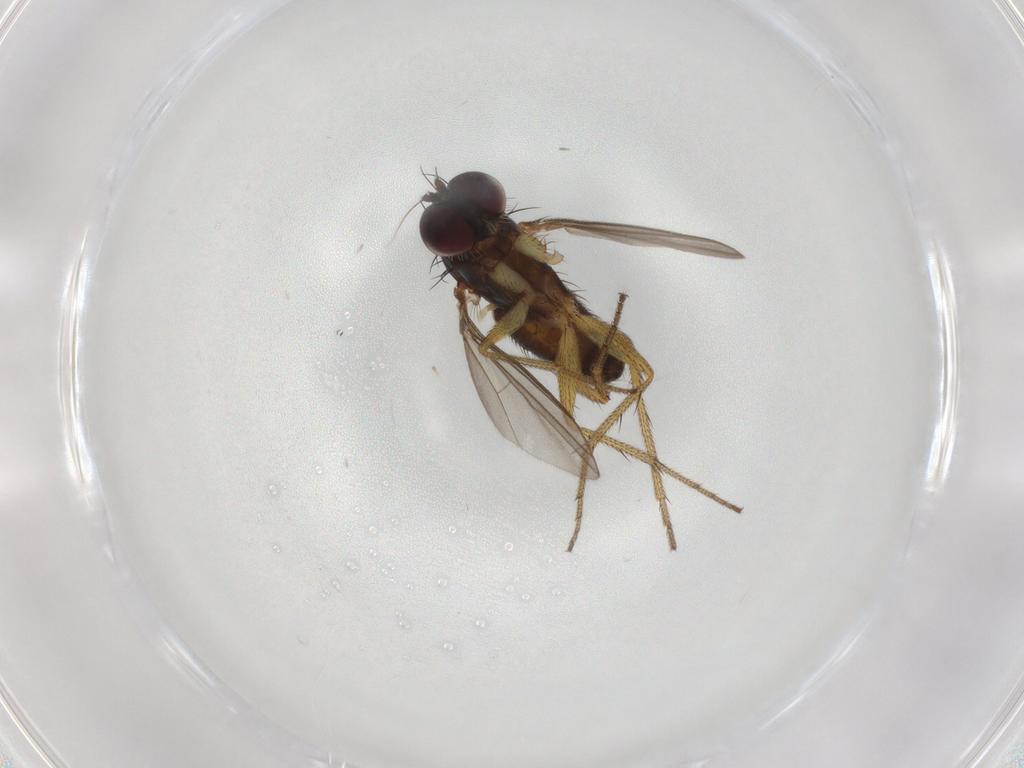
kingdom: Animalia
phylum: Arthropoda
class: Insecta
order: Diptera
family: Dolichopodidae
